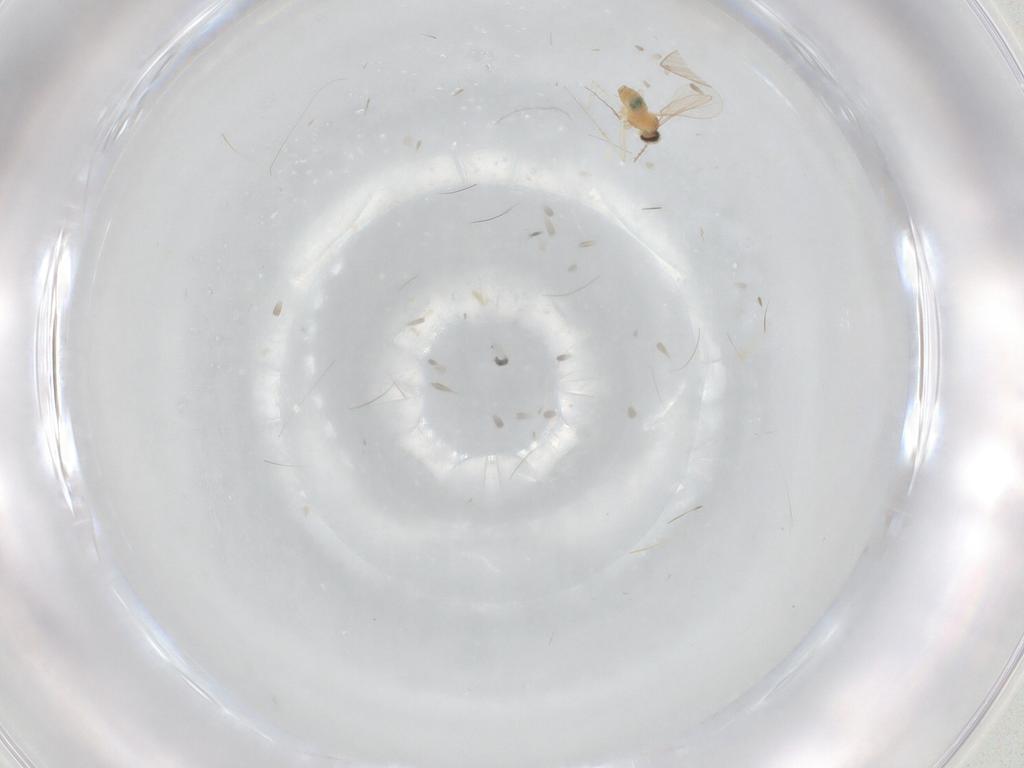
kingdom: Animalia
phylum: Arthropoda
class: Insecta
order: Diptera
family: Cecidomyiidae
